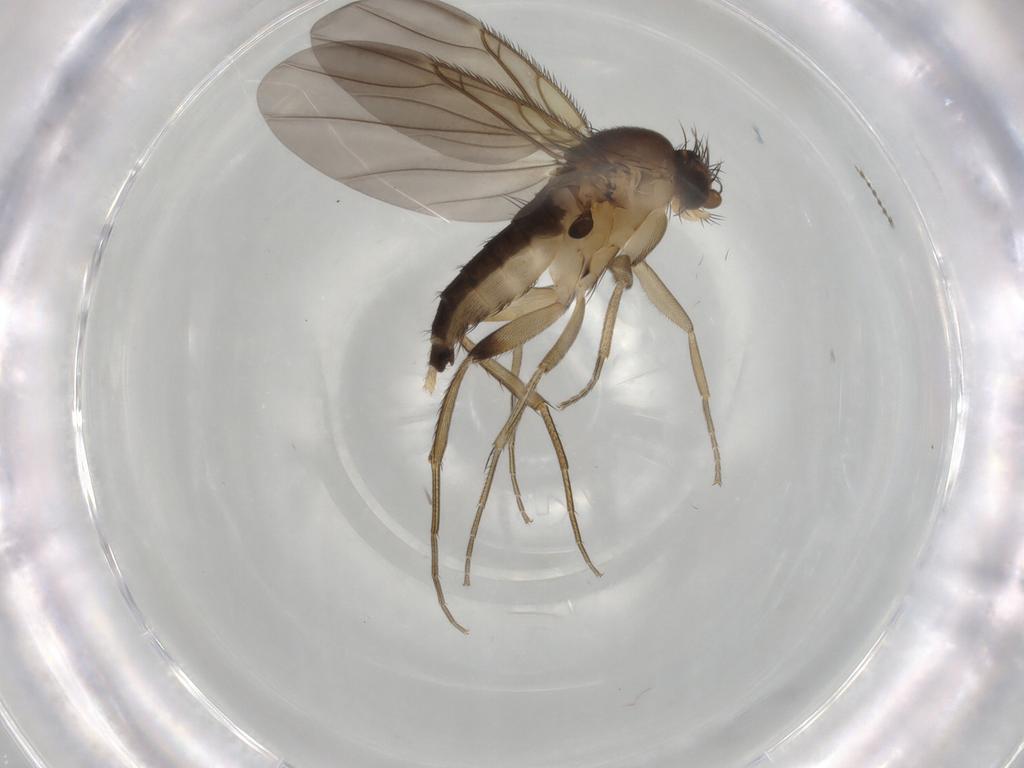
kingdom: Animalia
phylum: Arthropoda
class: Insecta
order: Diptera
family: Phoridae
